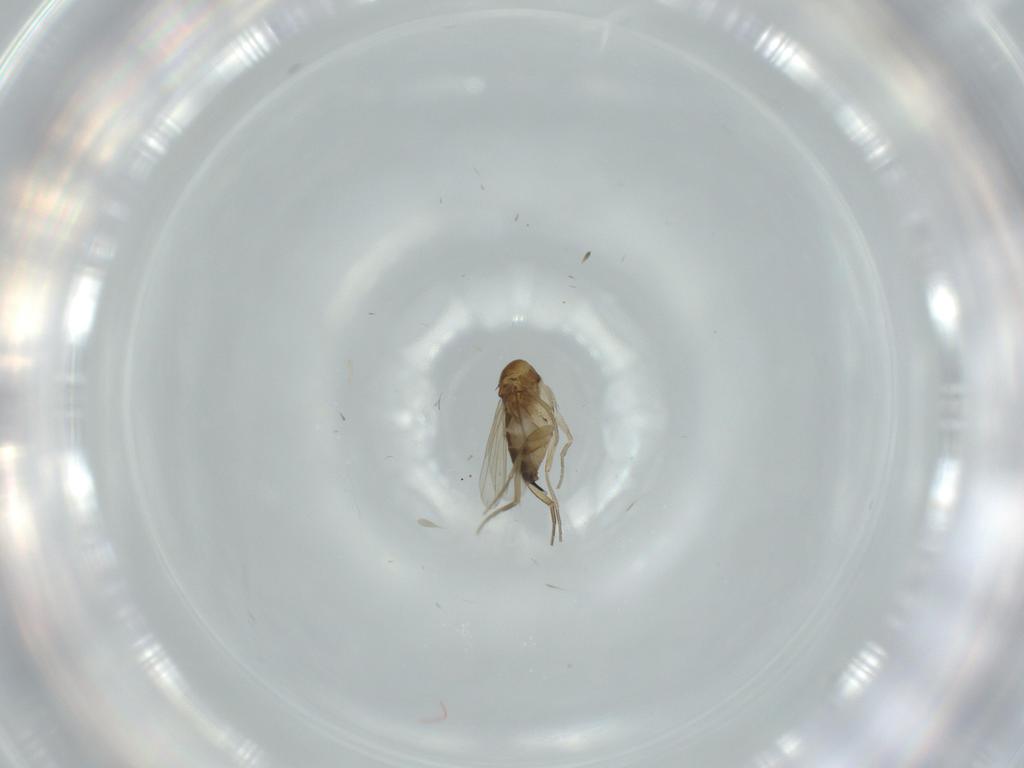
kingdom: Animalia
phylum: Arthropoda
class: Insecta
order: Diptera
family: Phoridae
